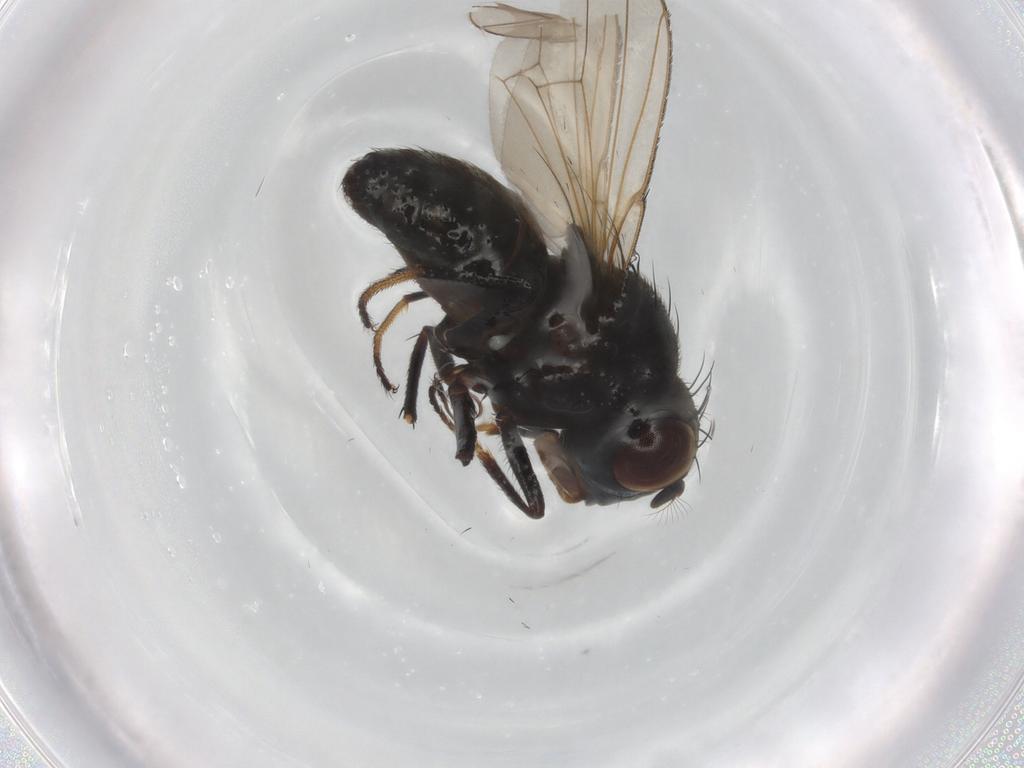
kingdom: Animalia
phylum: Arthropoda
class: Insecta
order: Diptera
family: Ephydridae
